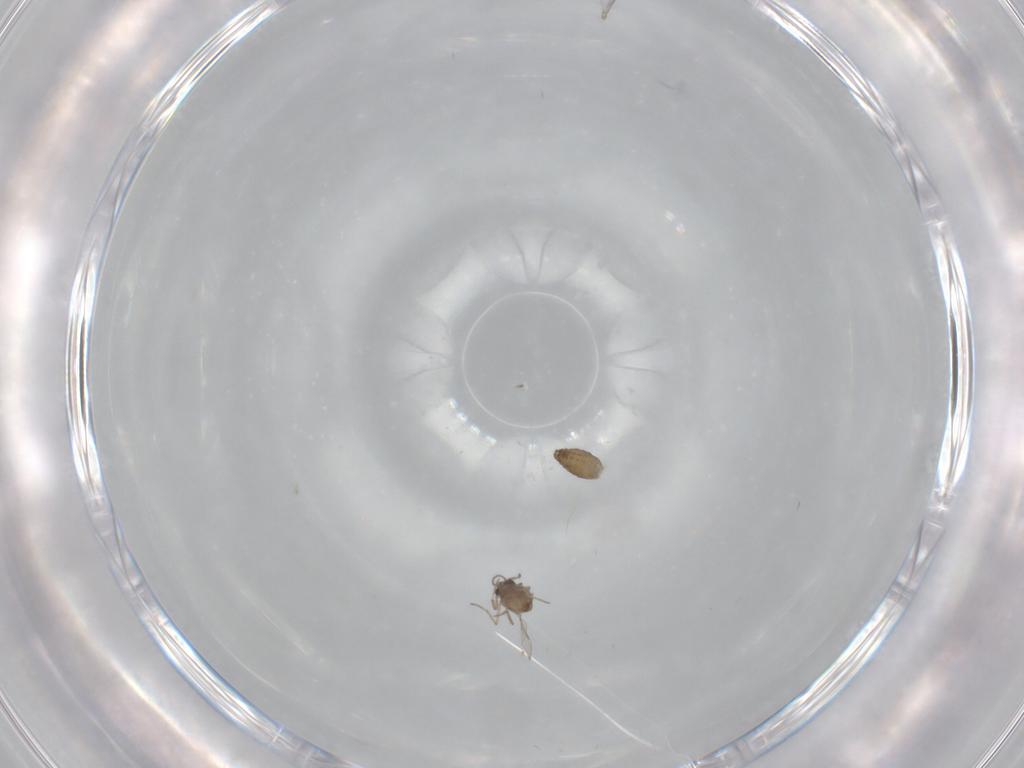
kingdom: Animalia
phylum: Arthropoda
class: Insecta
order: Diptera
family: Ceratopogonidae
